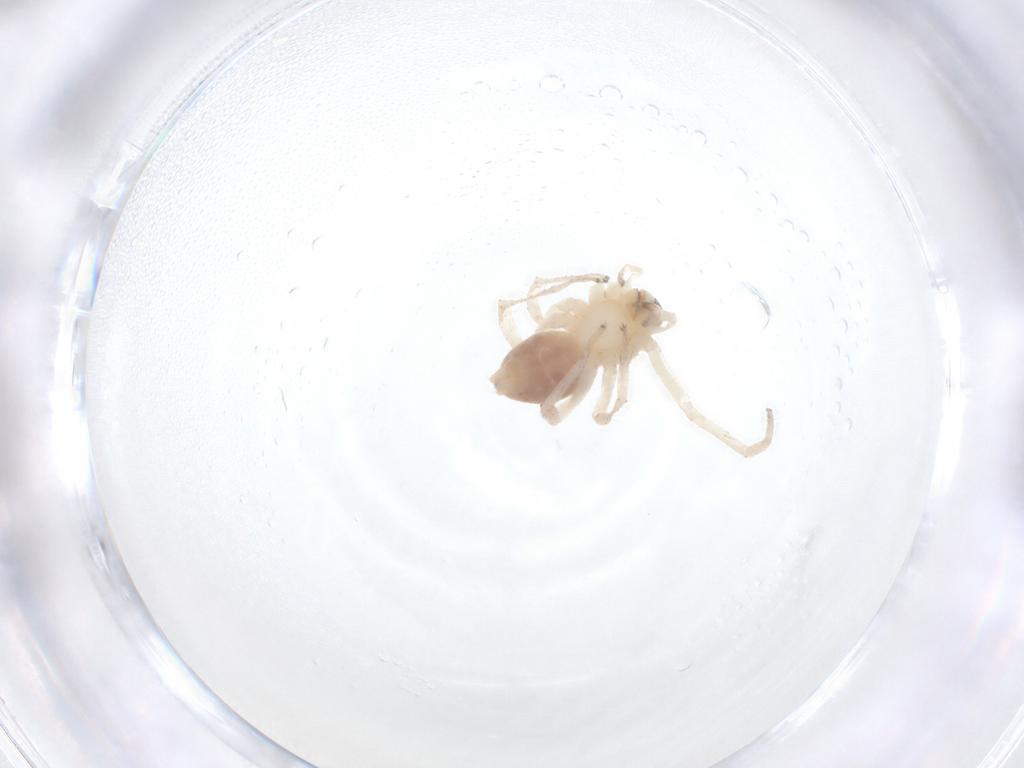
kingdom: Animalia
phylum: Arthropoda
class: Arachnida
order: Araneae
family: Anyphaenidae
